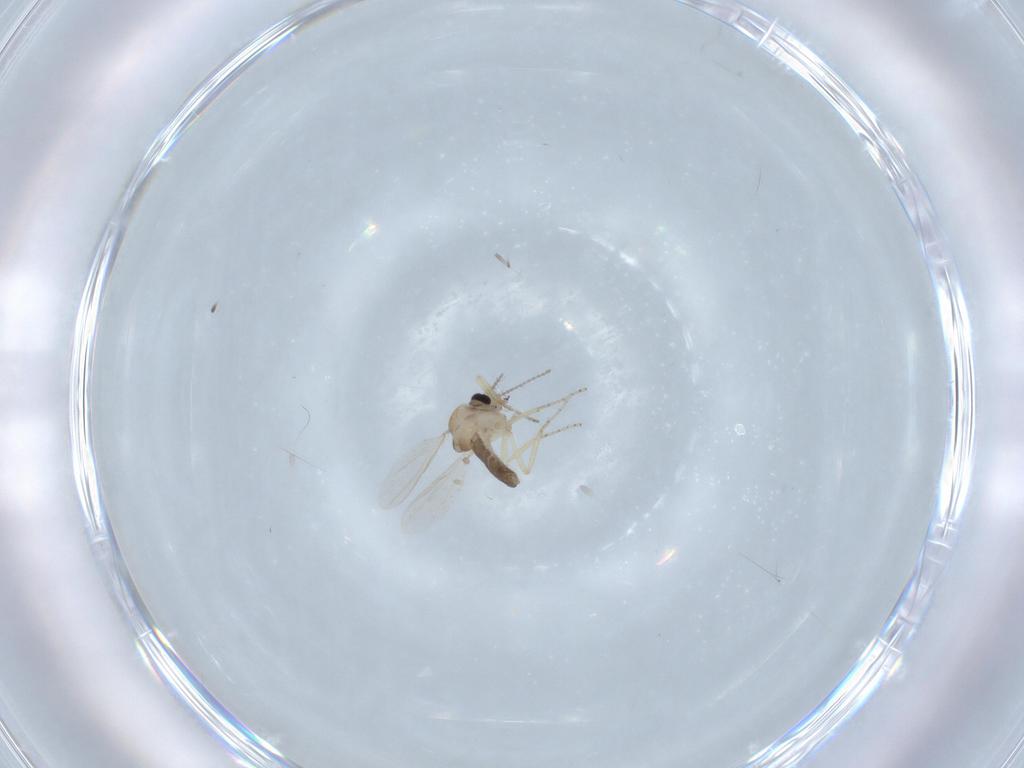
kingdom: Animalia
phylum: Arthropoda
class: Insecta
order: Diptera
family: Ceratopogonidae
